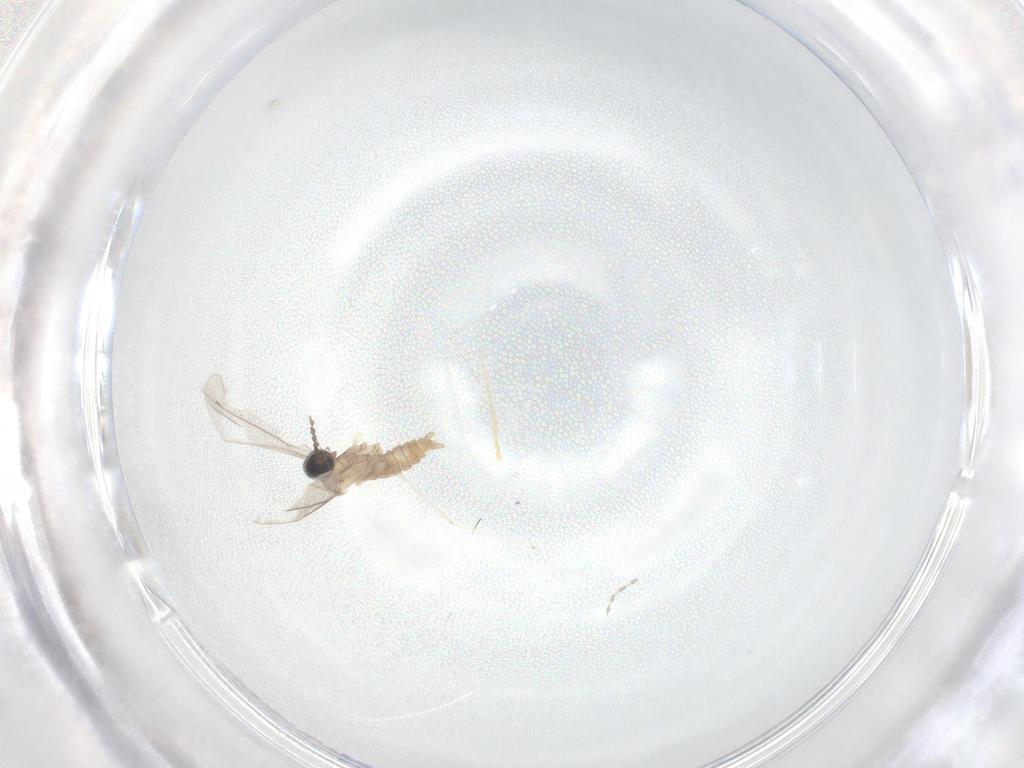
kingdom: Animalia
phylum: Arthropoda
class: Insecta
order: Diptera
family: Cecidomyiidae
